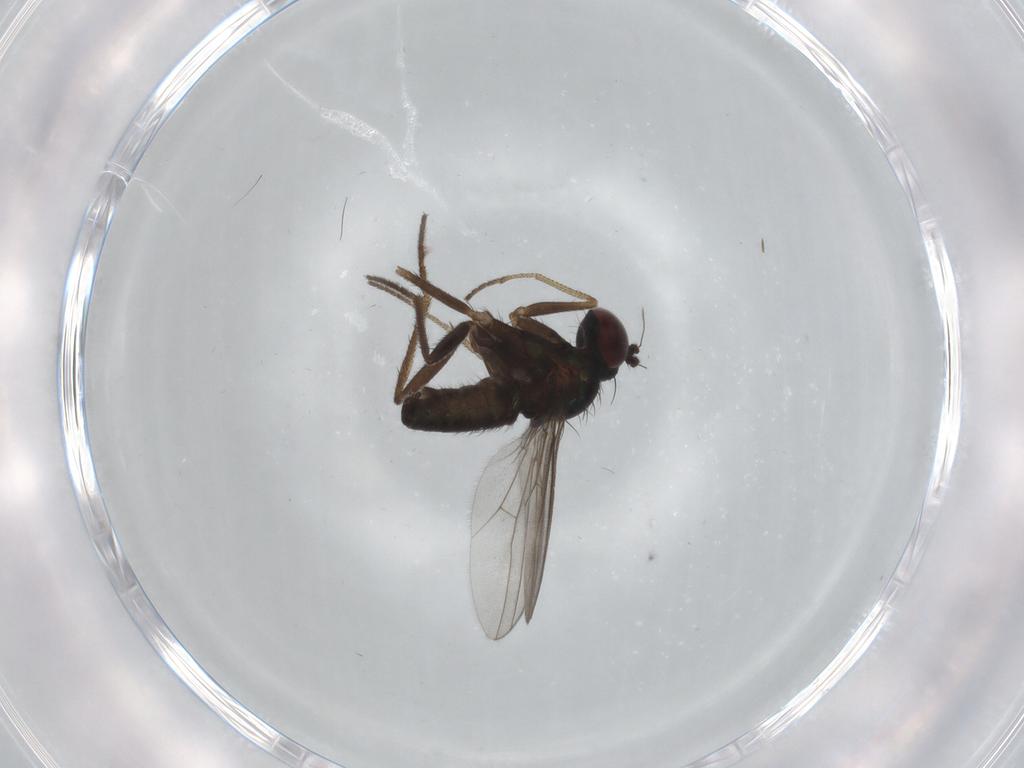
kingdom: Animalia
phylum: Arthropoda
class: Insecta
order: Diptera
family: Dolichopodidae
